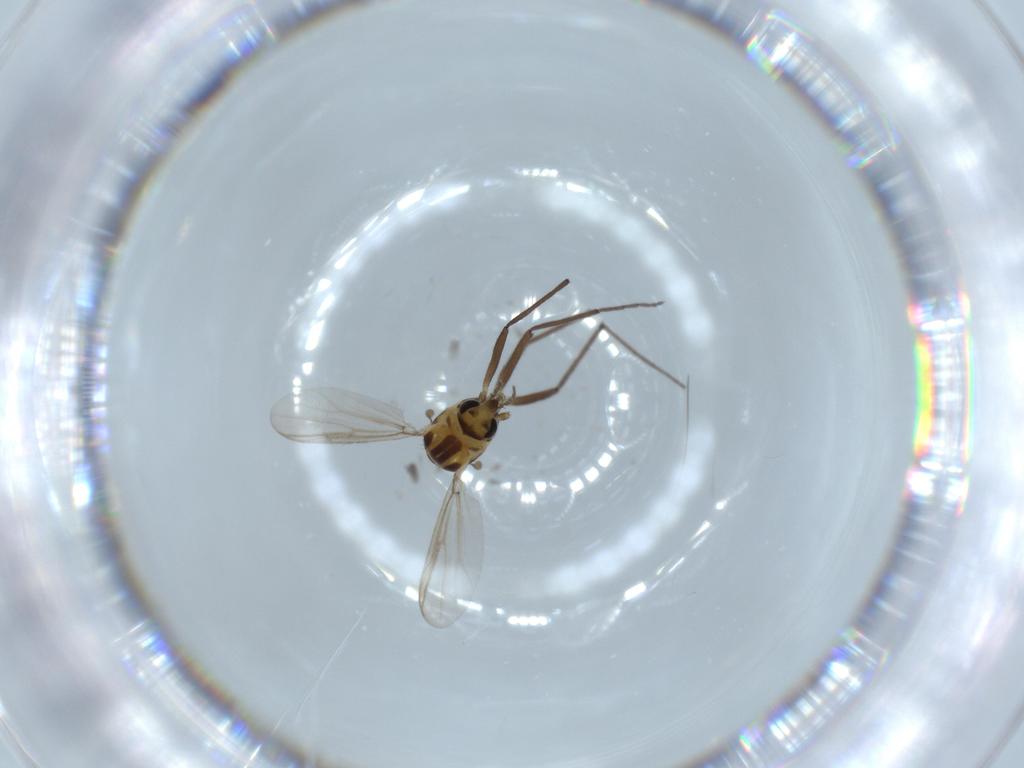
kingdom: Animalia
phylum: Arthropoda
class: Insecta
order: Diptera
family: Chironomidae
